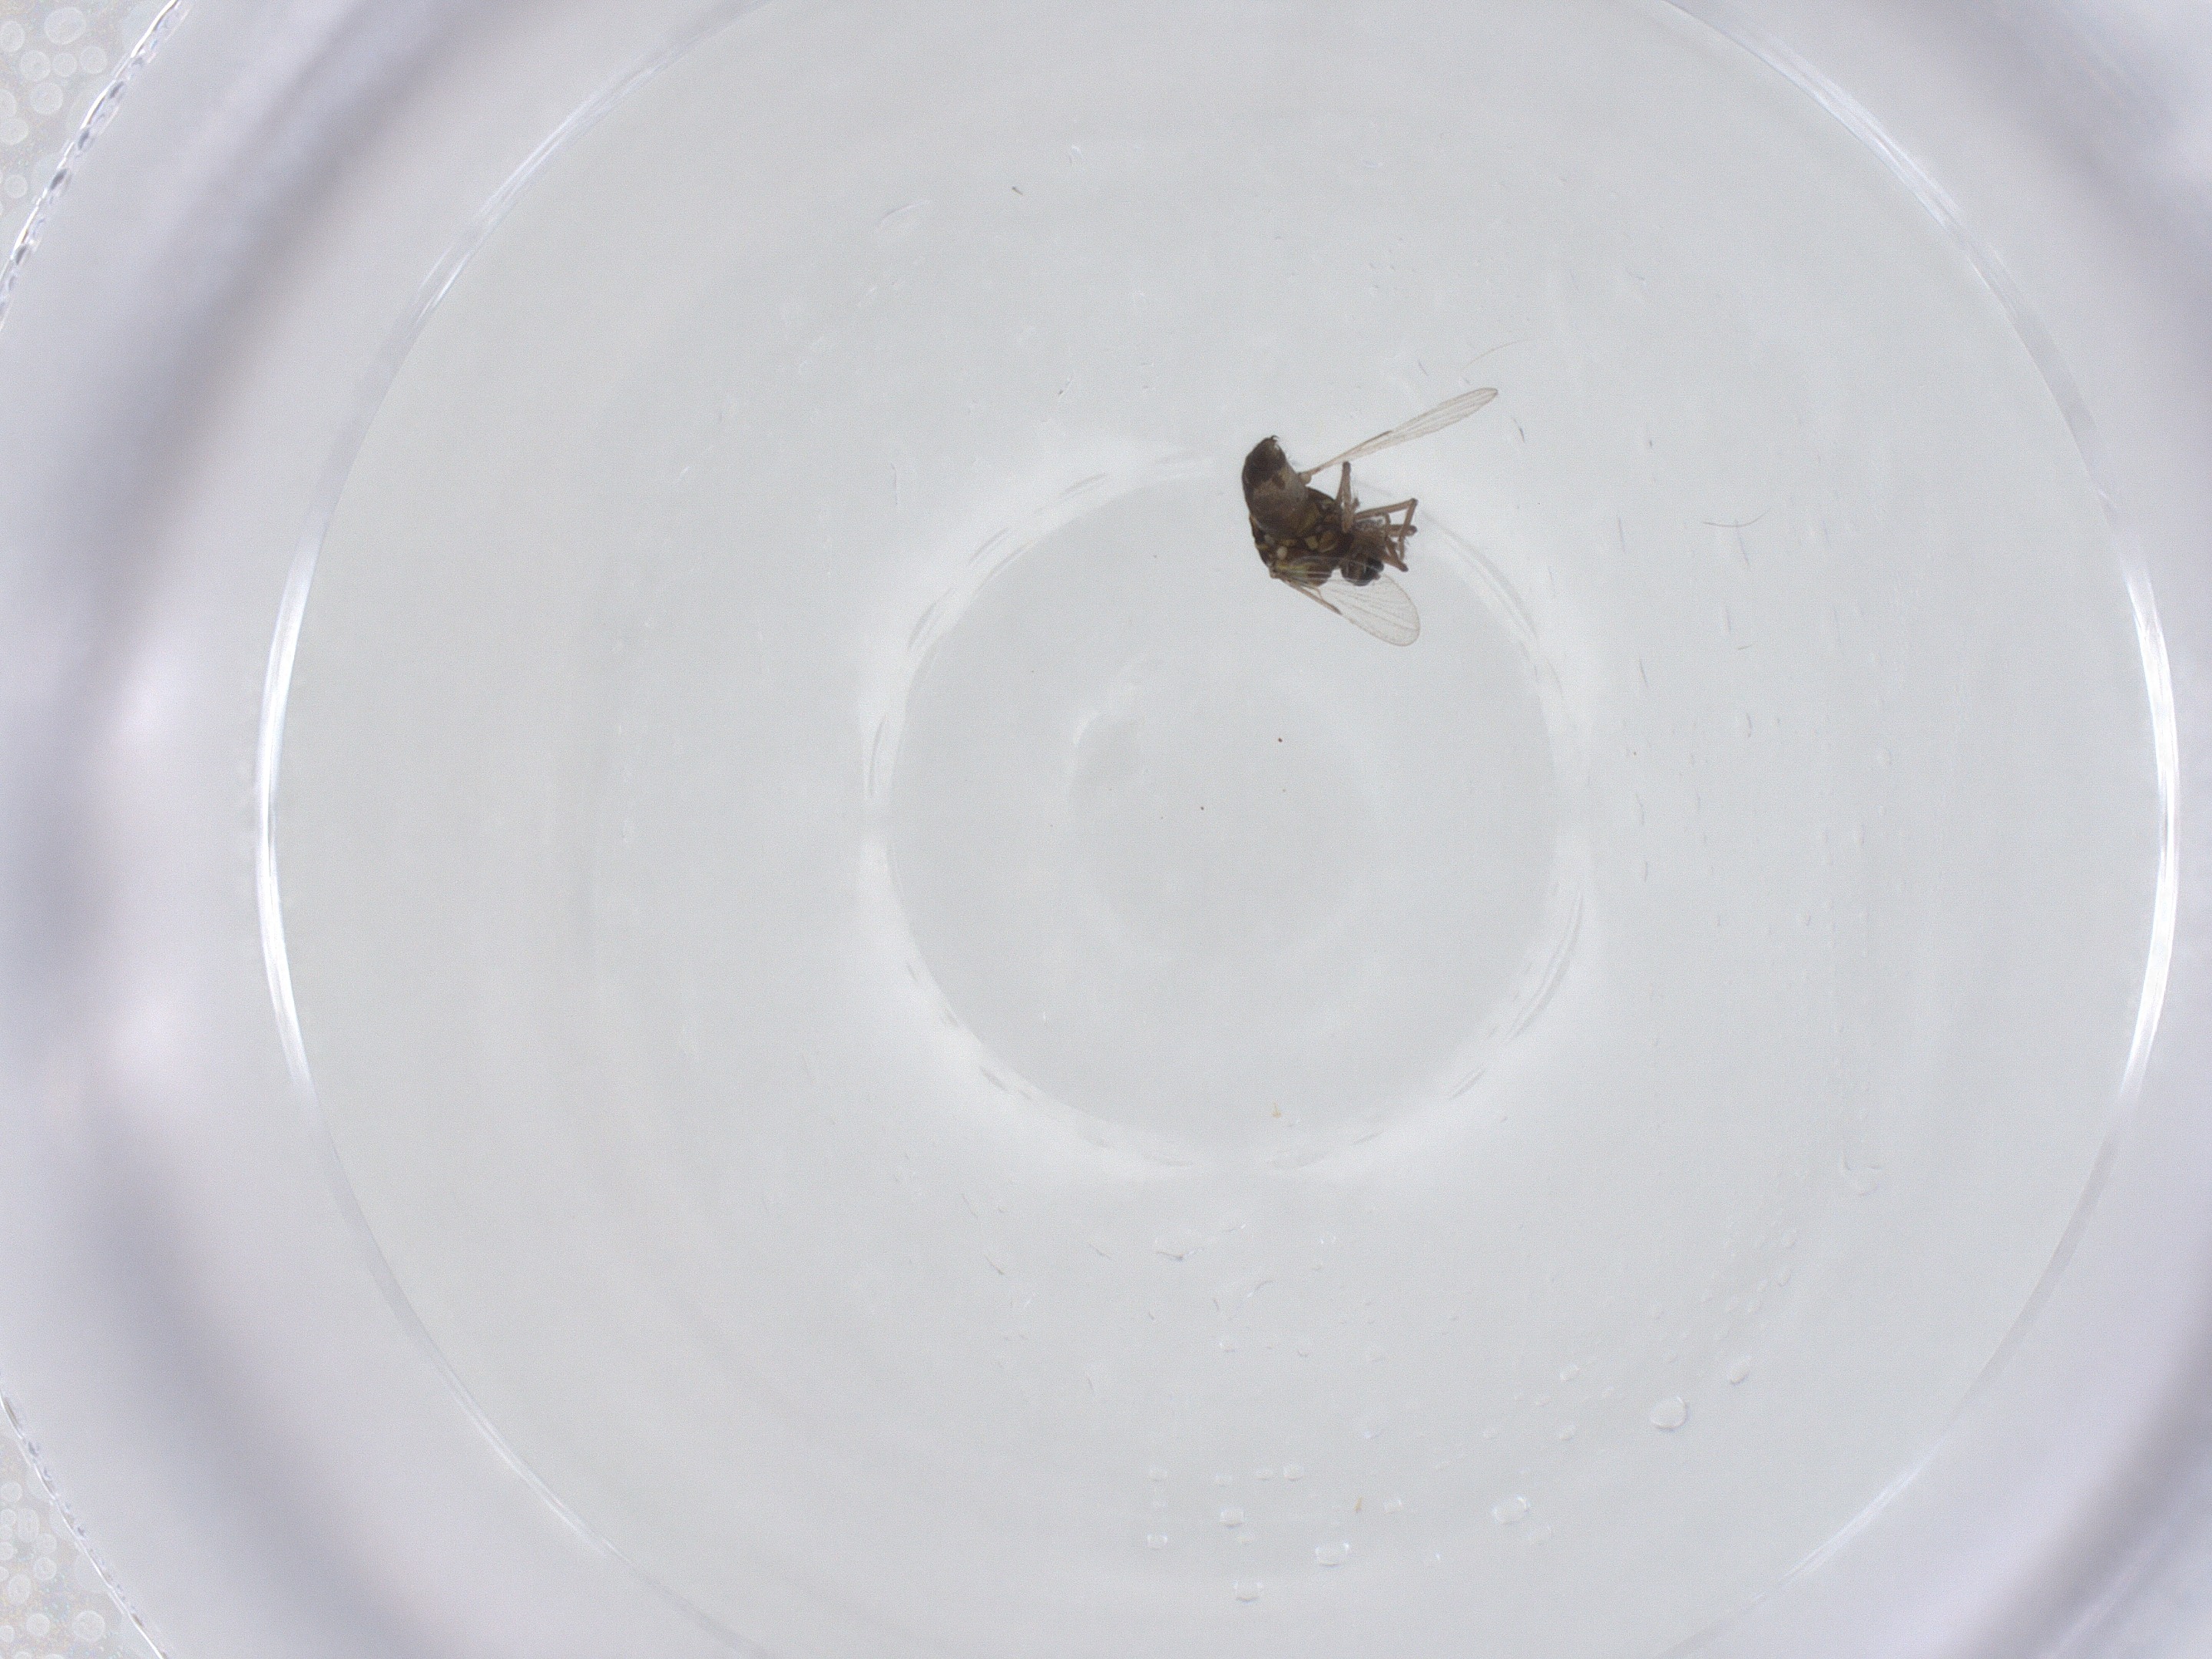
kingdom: Animalia
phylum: Arthropoda
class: Insecta
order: Diptera
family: Ceratopogonidae
